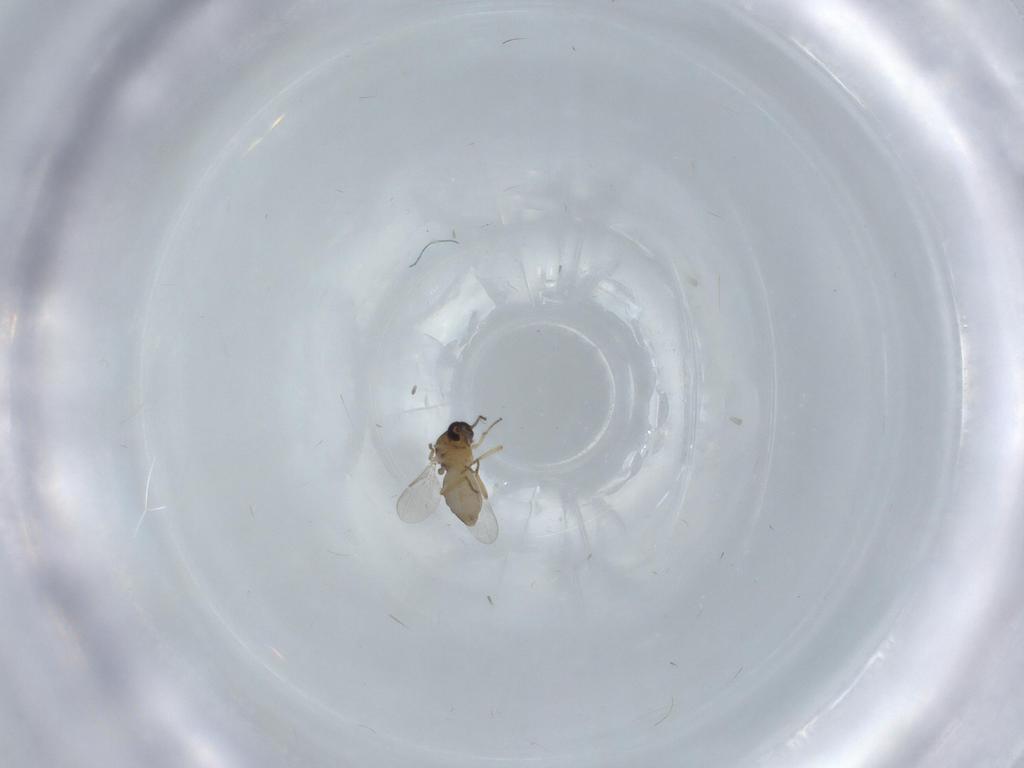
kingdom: Animalia
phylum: Arthropoda
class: Insecta
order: Diptera
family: Ceratopogonidae
